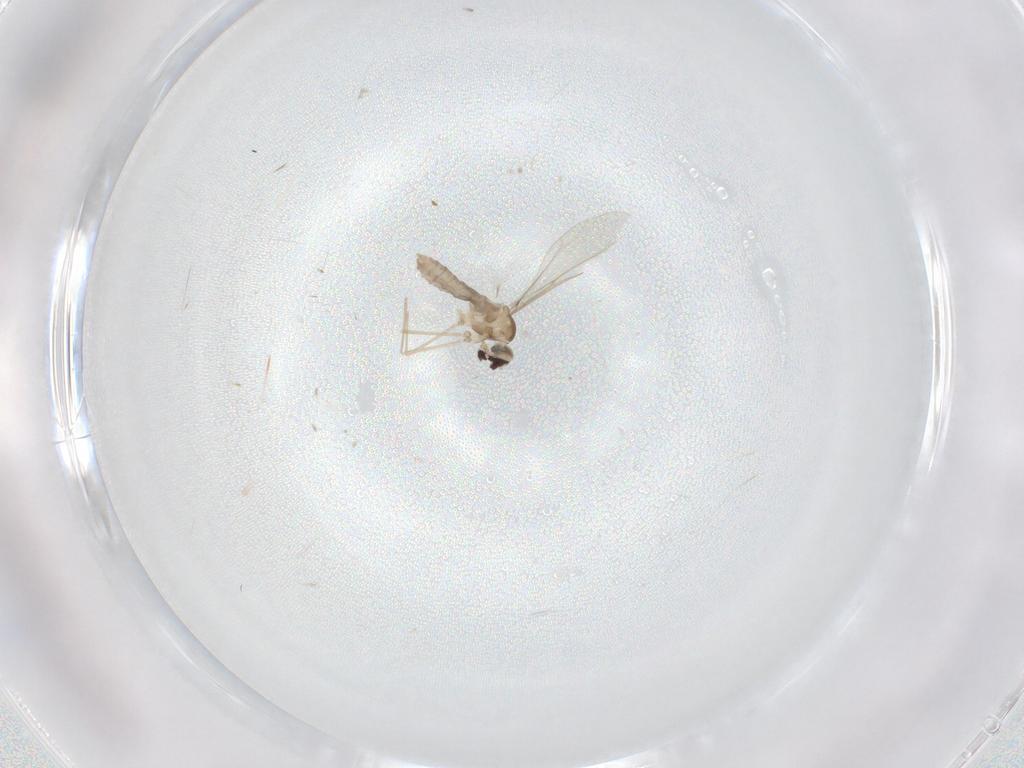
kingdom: Animalia
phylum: Arthropoda
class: Insecta
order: Diptera
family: Cecidomyiidae
